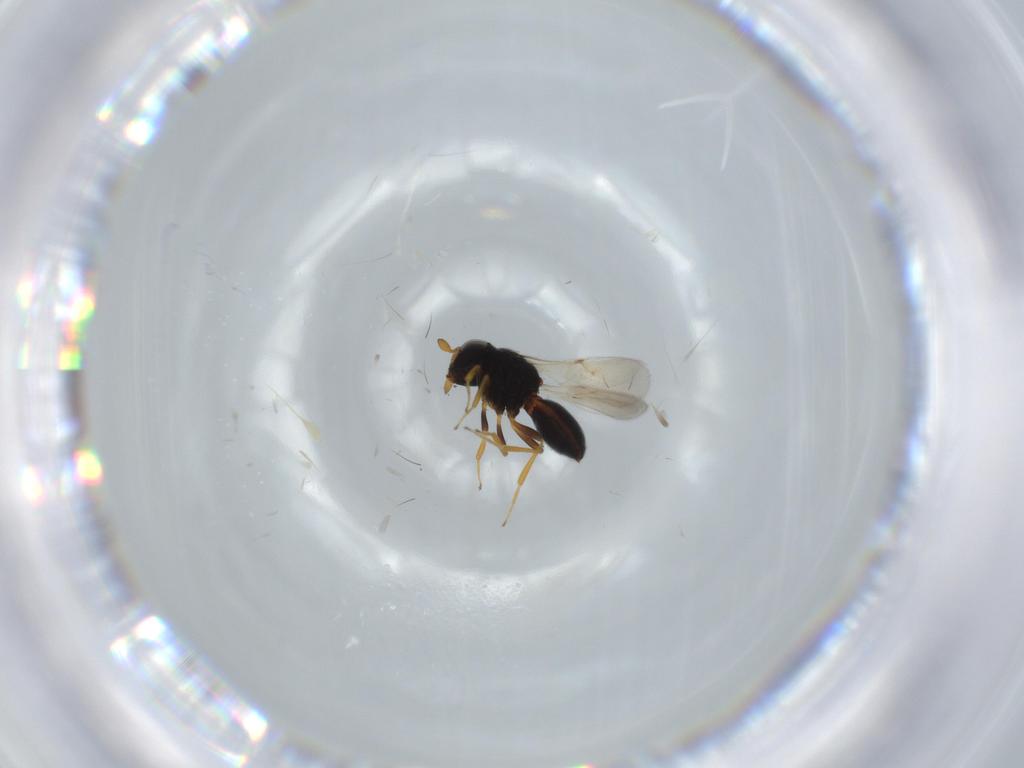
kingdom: Animalia
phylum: Arthropoda
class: Insecta
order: Hymenoptera
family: Scelionidae
